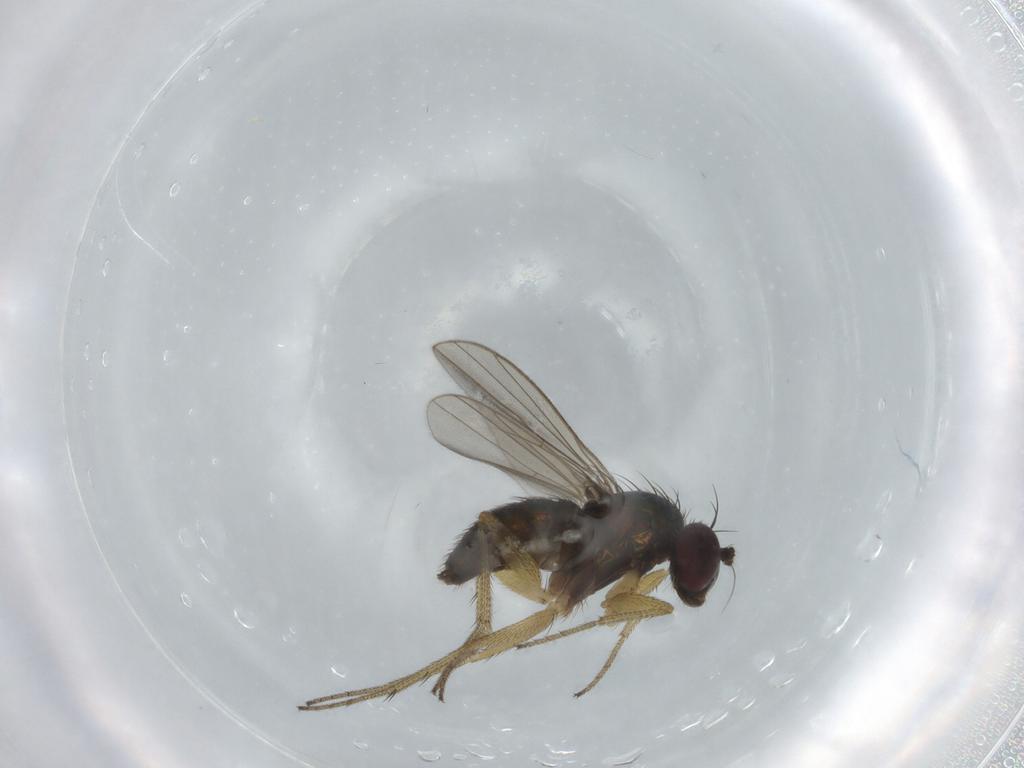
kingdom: Animalia
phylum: Arthropoda
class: Insecta
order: Diptera
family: Dolichopodidae
